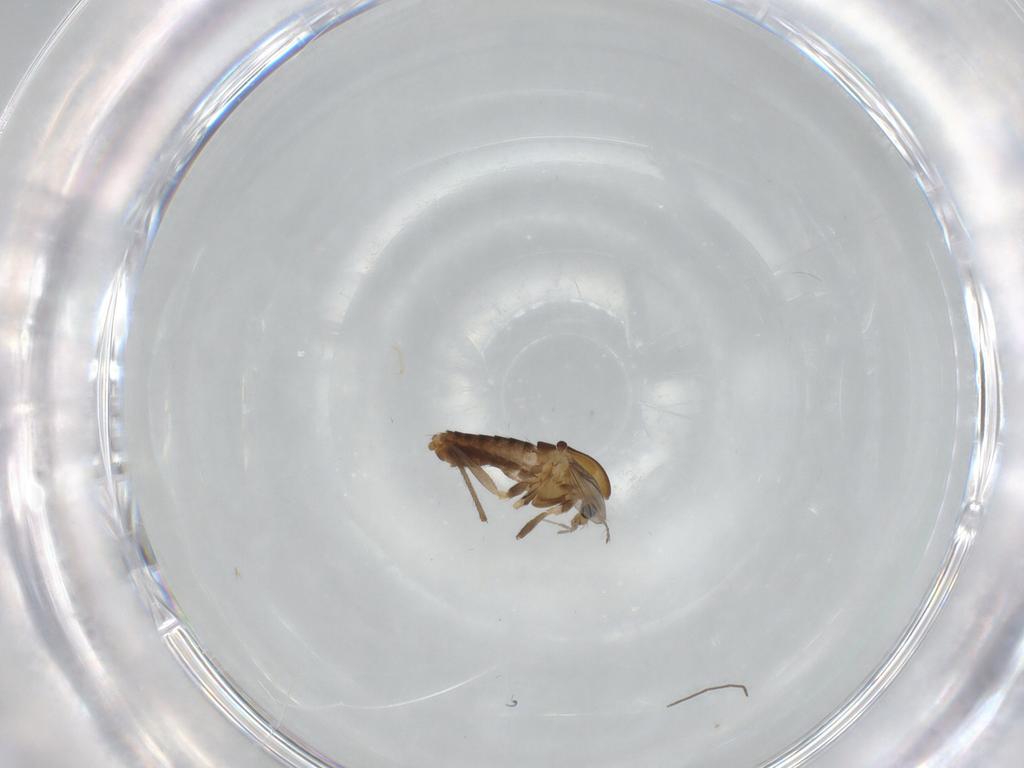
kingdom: Animalia
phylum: Arthropoda
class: Insecta
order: Diptera
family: Chironomidae
